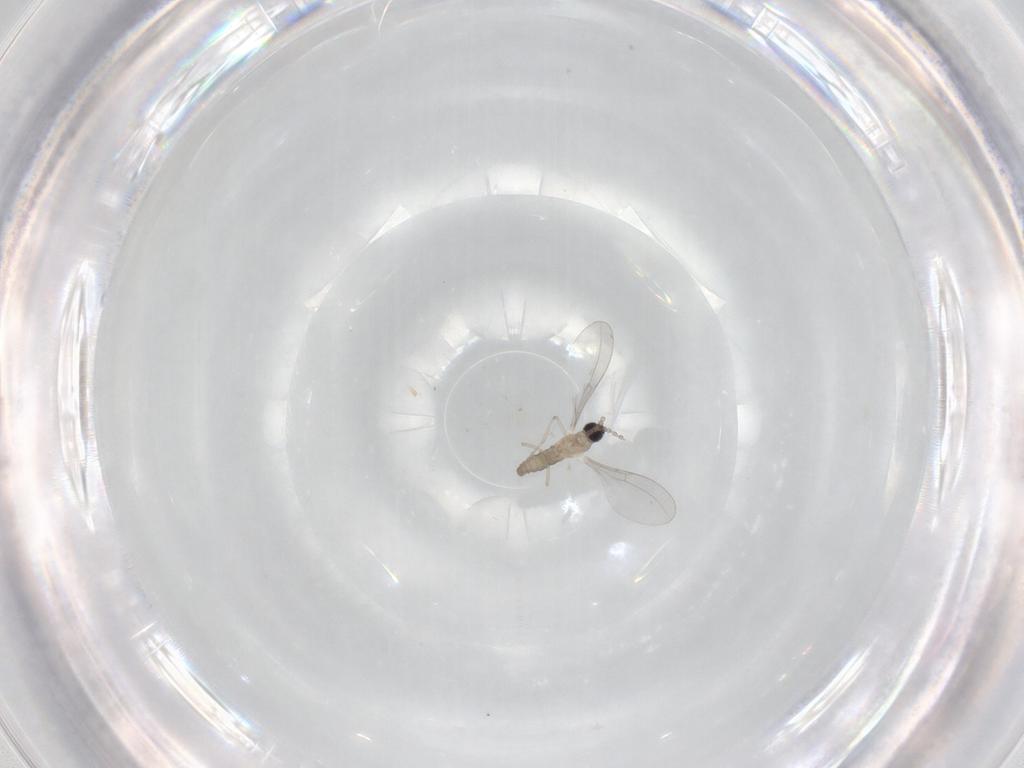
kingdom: Animalia
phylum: Arthropoda
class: Insecta
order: Diptera
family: Cecidomyiidae
